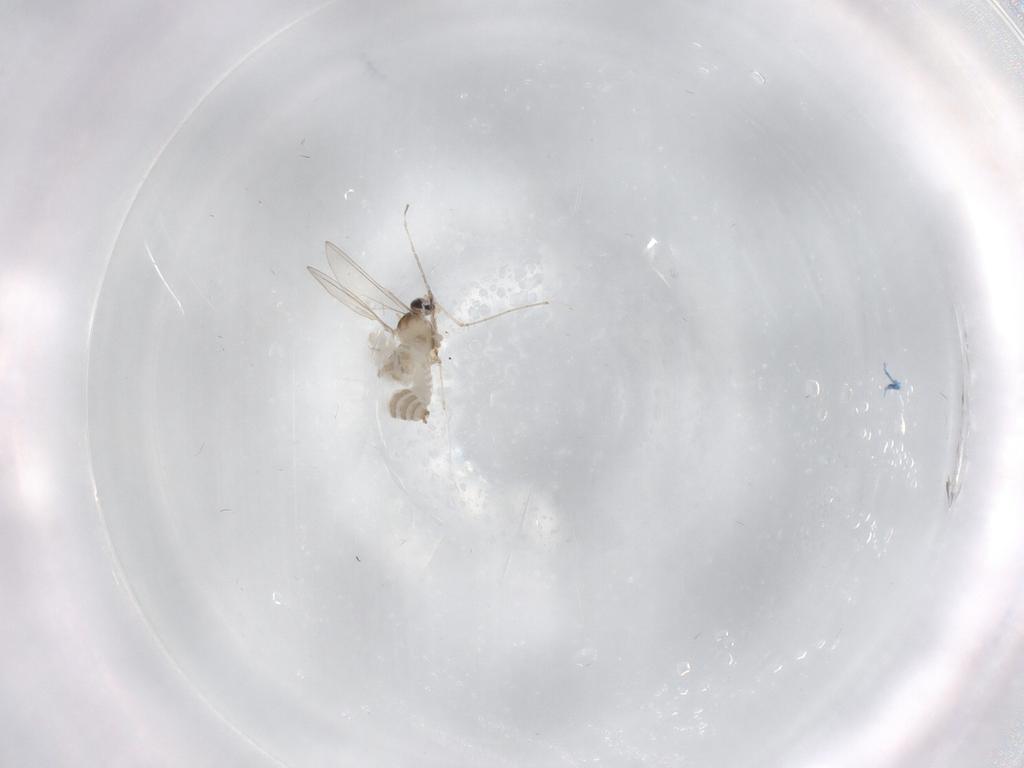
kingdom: Animalia
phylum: Arthropoda
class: Insecta
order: Diptera
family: Cecidomyiidae
